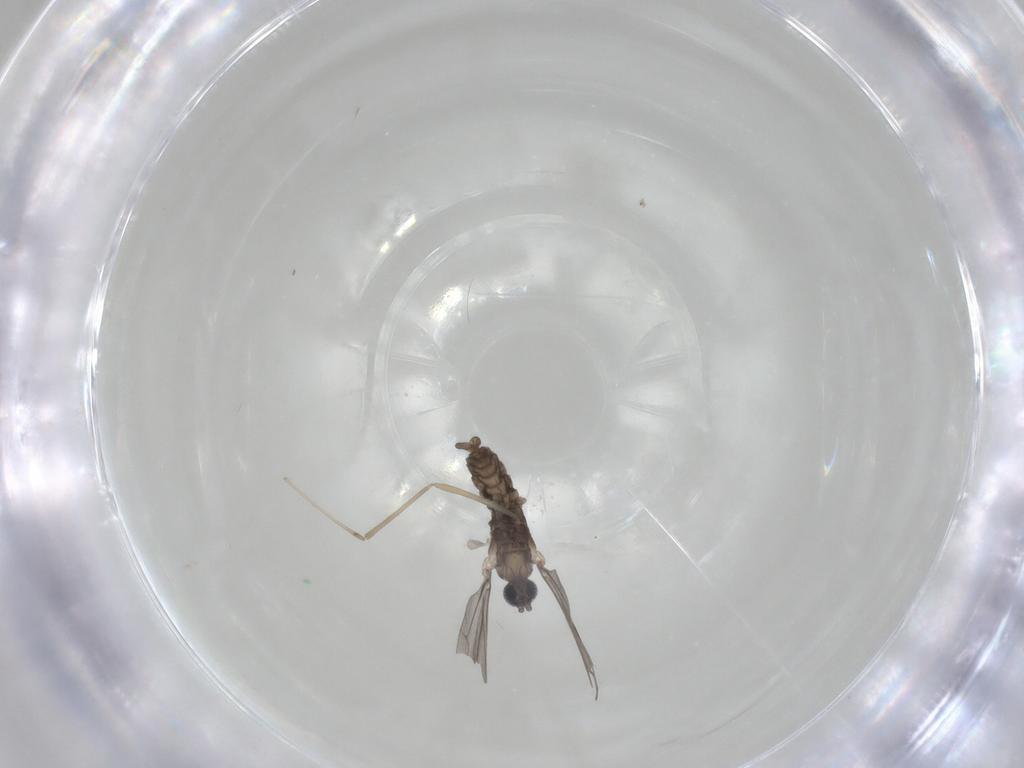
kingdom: Animalia
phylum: Arthropoda
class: Insecta
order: Diptera
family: Cecidomyiidae
